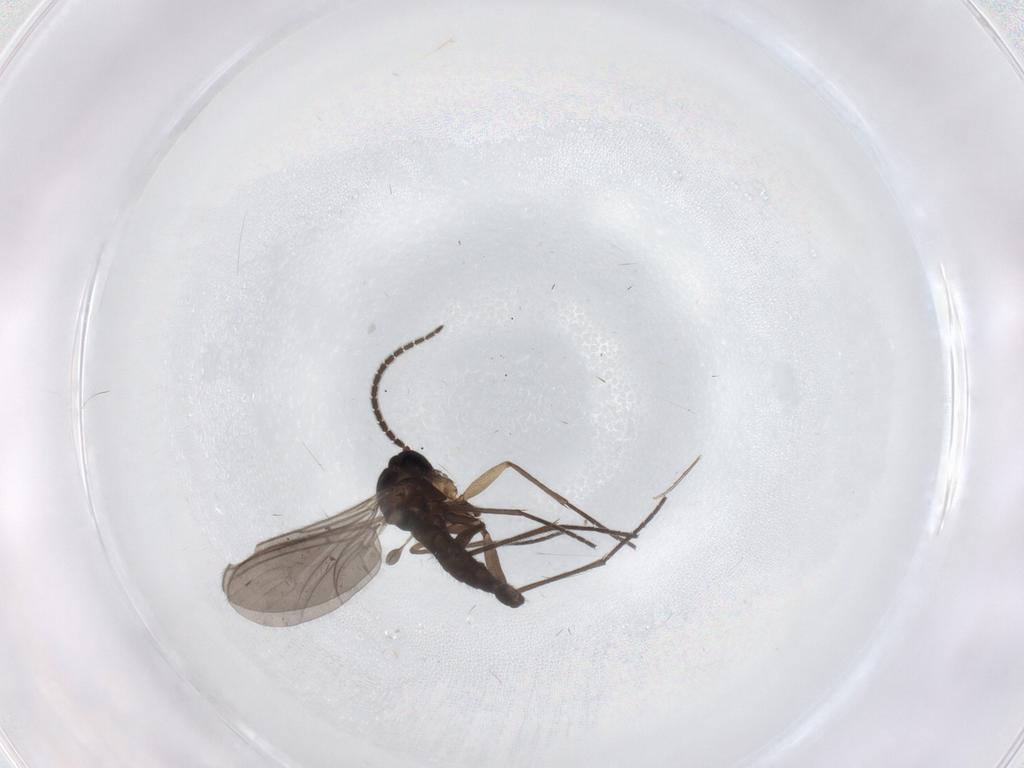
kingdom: Animalia
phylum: Arthropoda
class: Insecta
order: Diptera
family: Sciaridae
